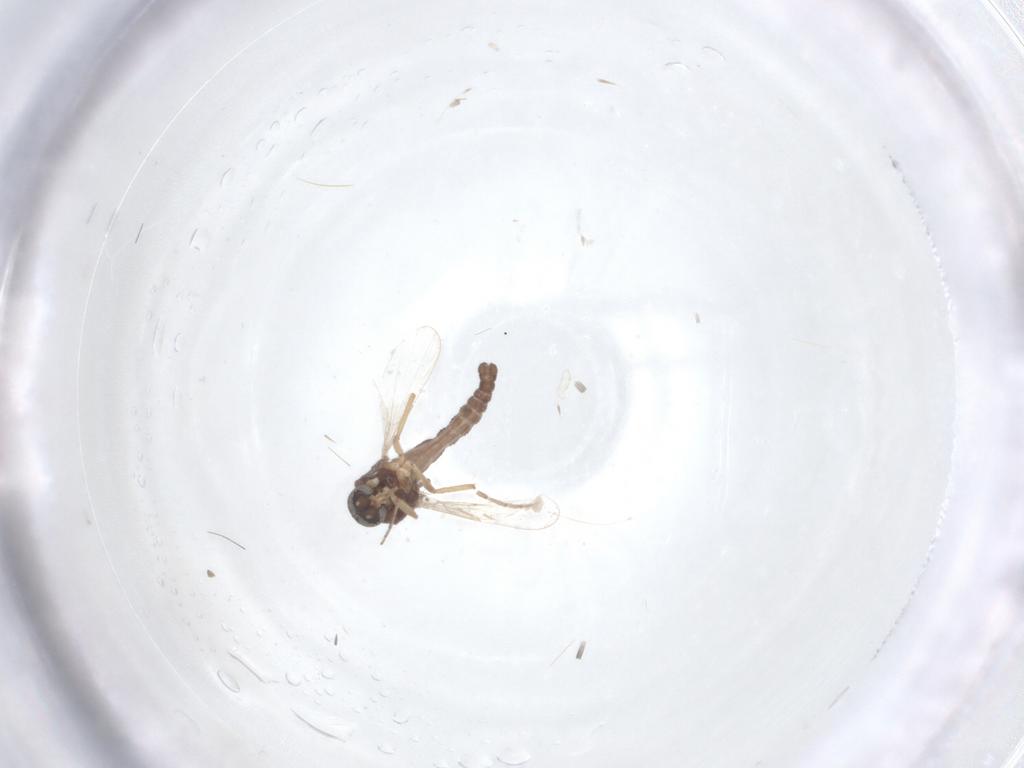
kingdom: Animalia
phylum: Arthropoda
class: Insecta
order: Diptera
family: Ceratopogonidae
